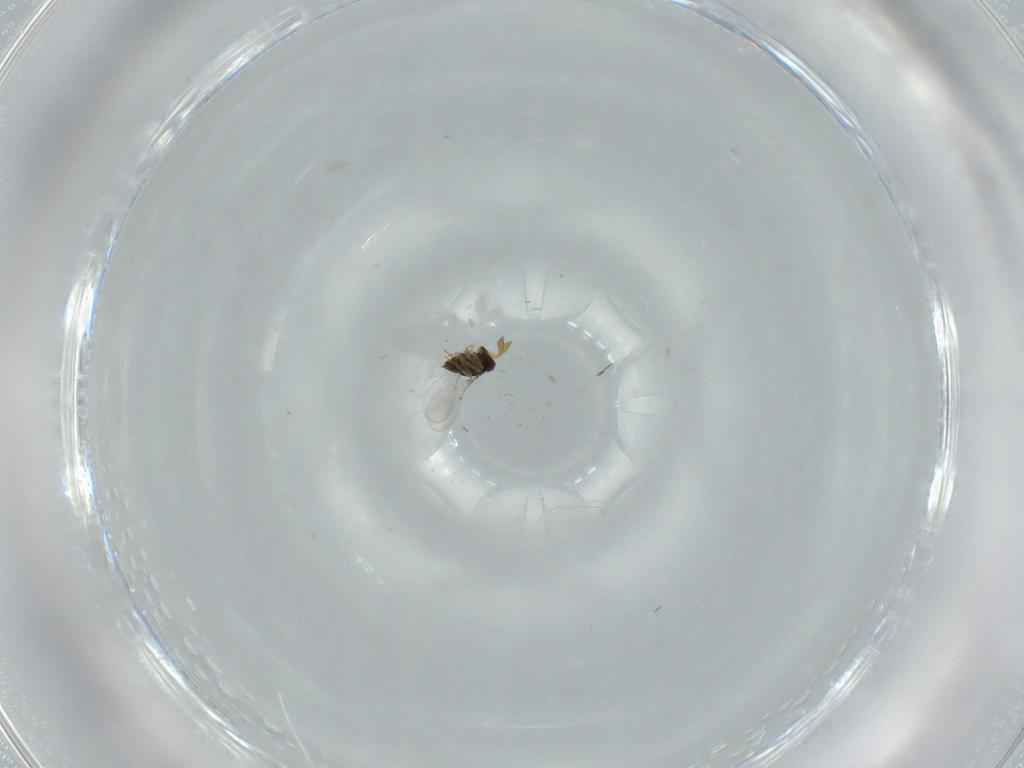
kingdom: Animalia
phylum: Arthropoda
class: Insecta
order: Hymenoptera
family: Encyrtidae
